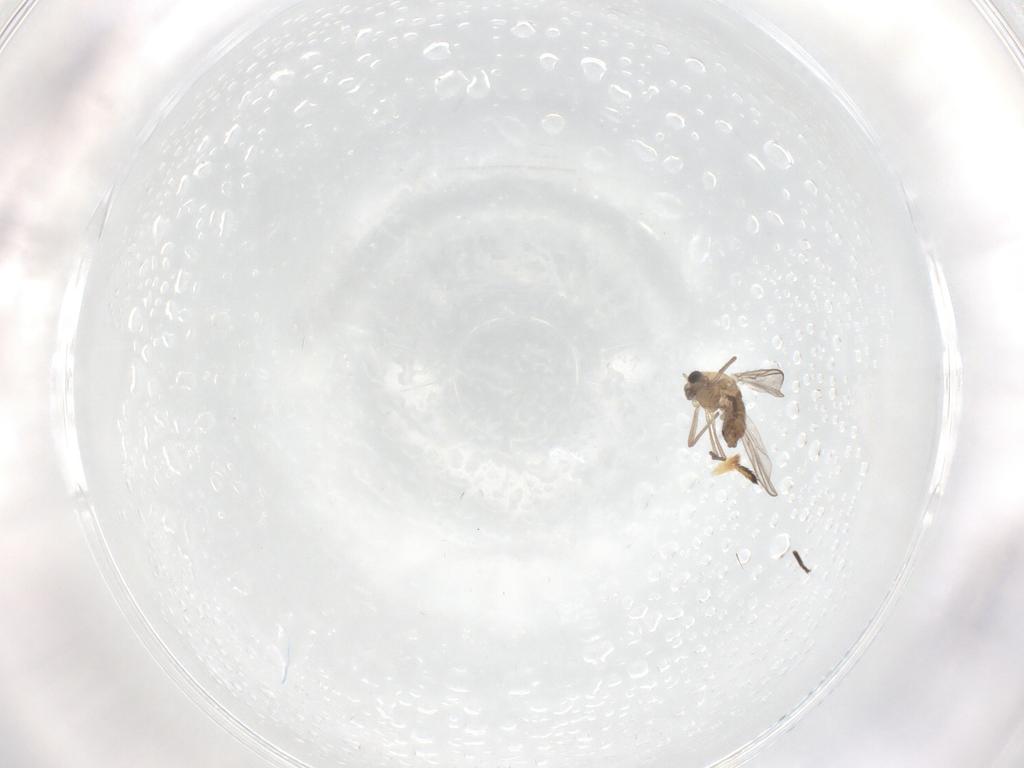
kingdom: Animalia
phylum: Arthropoda
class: Insecta
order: Diptera
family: Chironomidae
